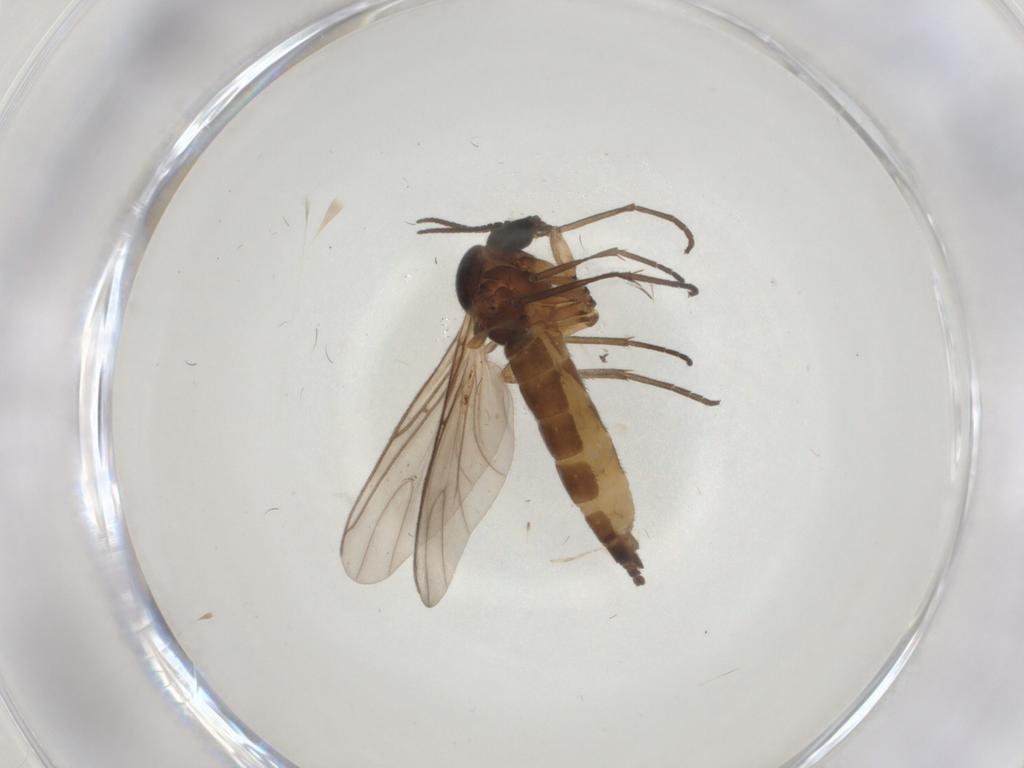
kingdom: Animalia
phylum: Arthropoda
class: Insecta
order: Diptera
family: Sciaridae
